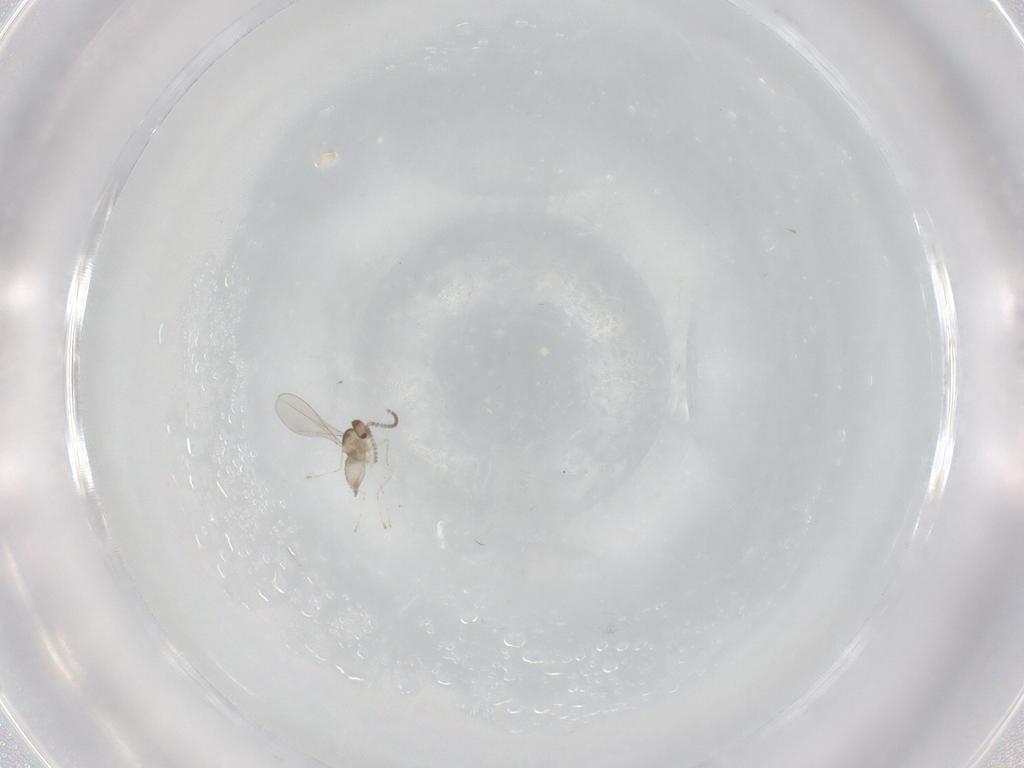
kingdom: Animalia
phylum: Arthropoda
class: Insecta
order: Diptera
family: Cecidomyiidae
